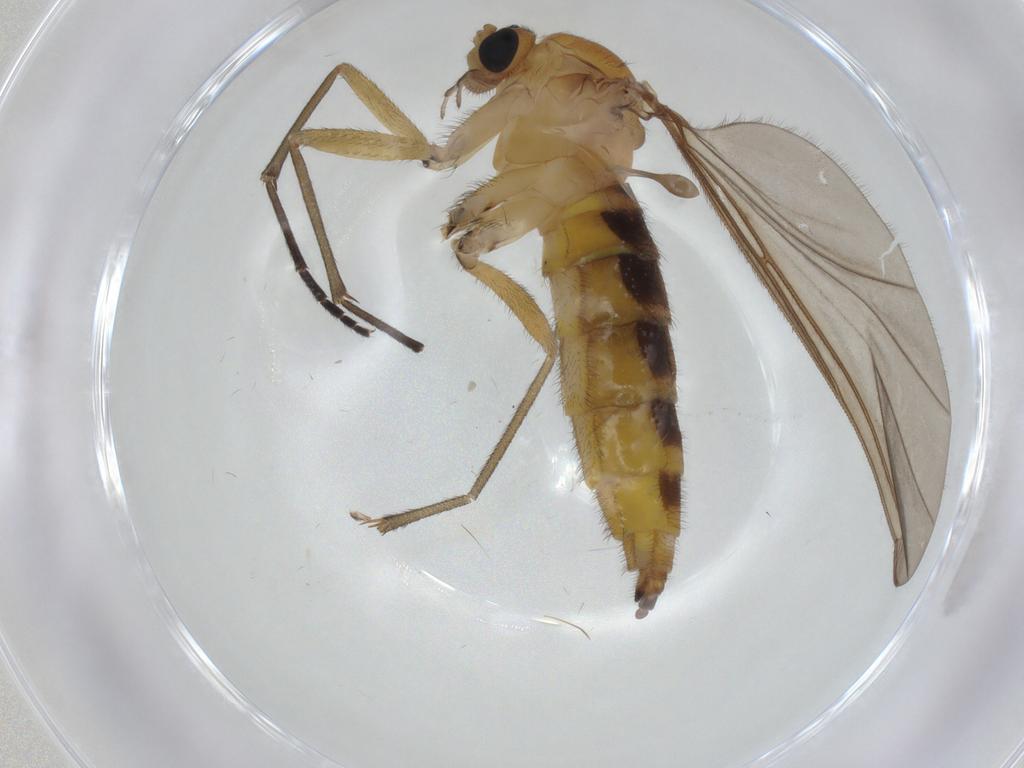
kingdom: Animalia
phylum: Arthropoda
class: Insecta
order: Diptera
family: Sciaridae
